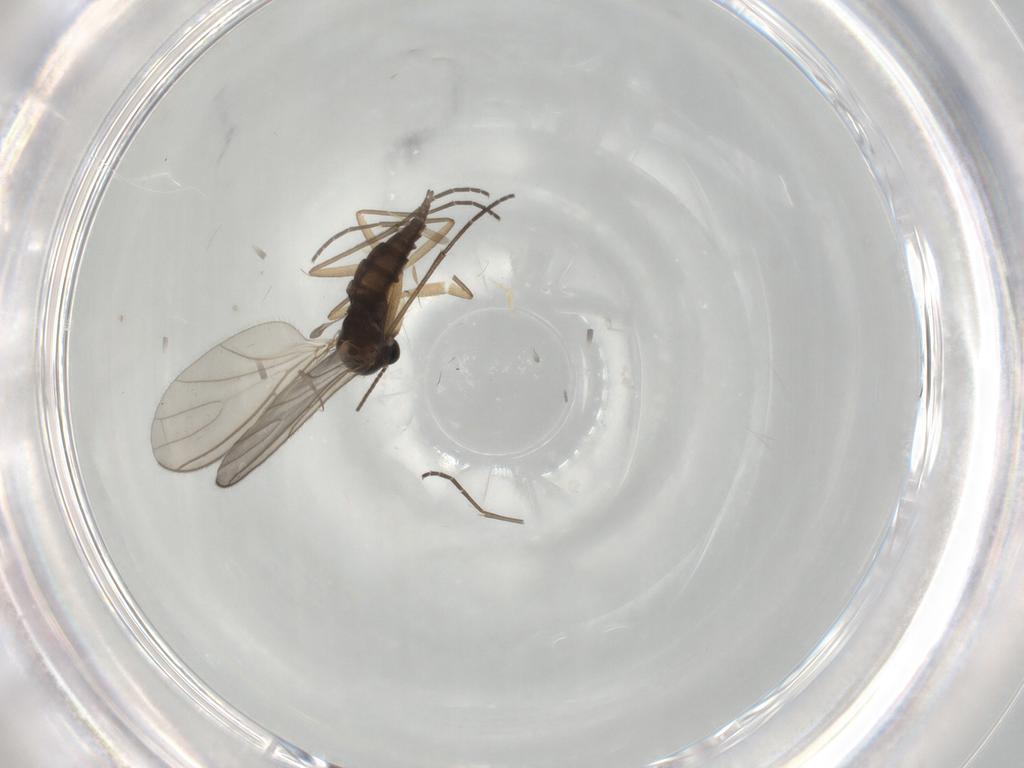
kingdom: Animalia
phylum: Arthropoda
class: Insecta
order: Diptera
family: Sciaridae
